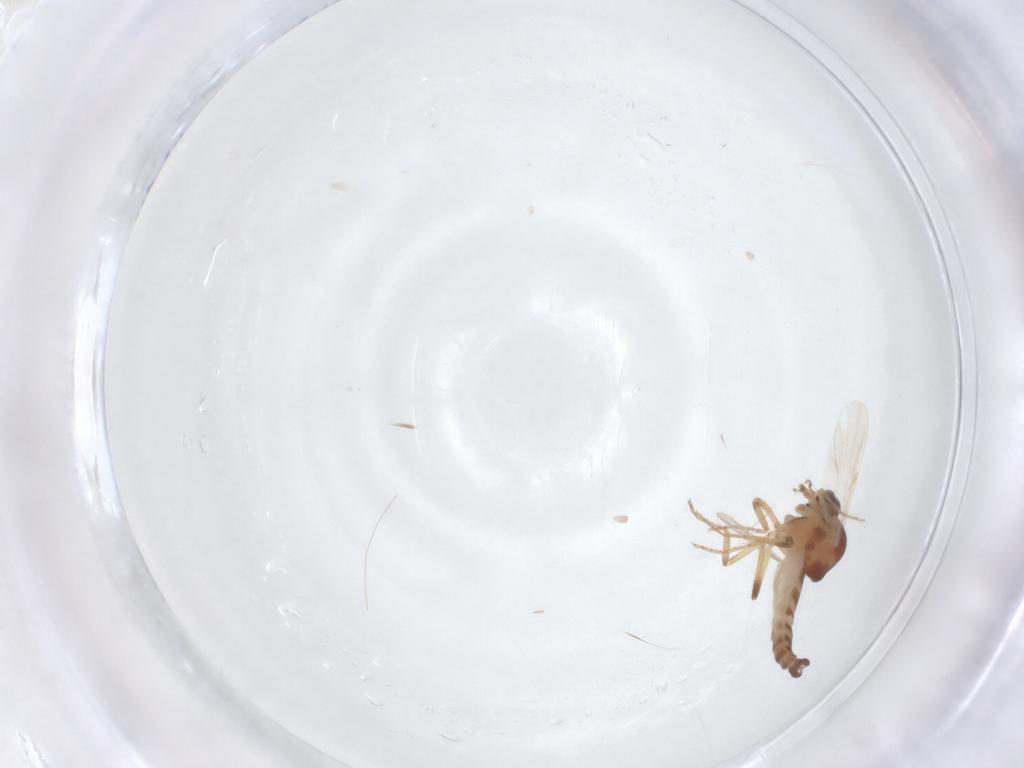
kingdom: Animalia
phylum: Arthropoda
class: Insecta
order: Diptera
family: Ceratopogonidae
